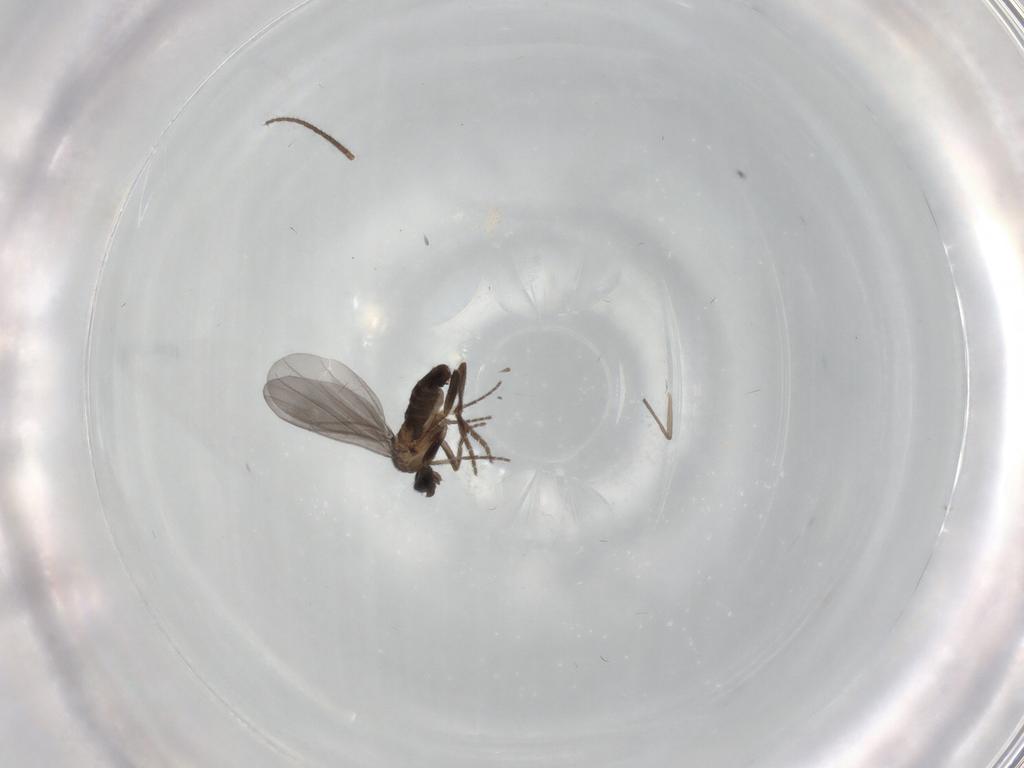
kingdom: Animalia
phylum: Arthropoda
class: Insecta
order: Diptera
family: Phoridae
